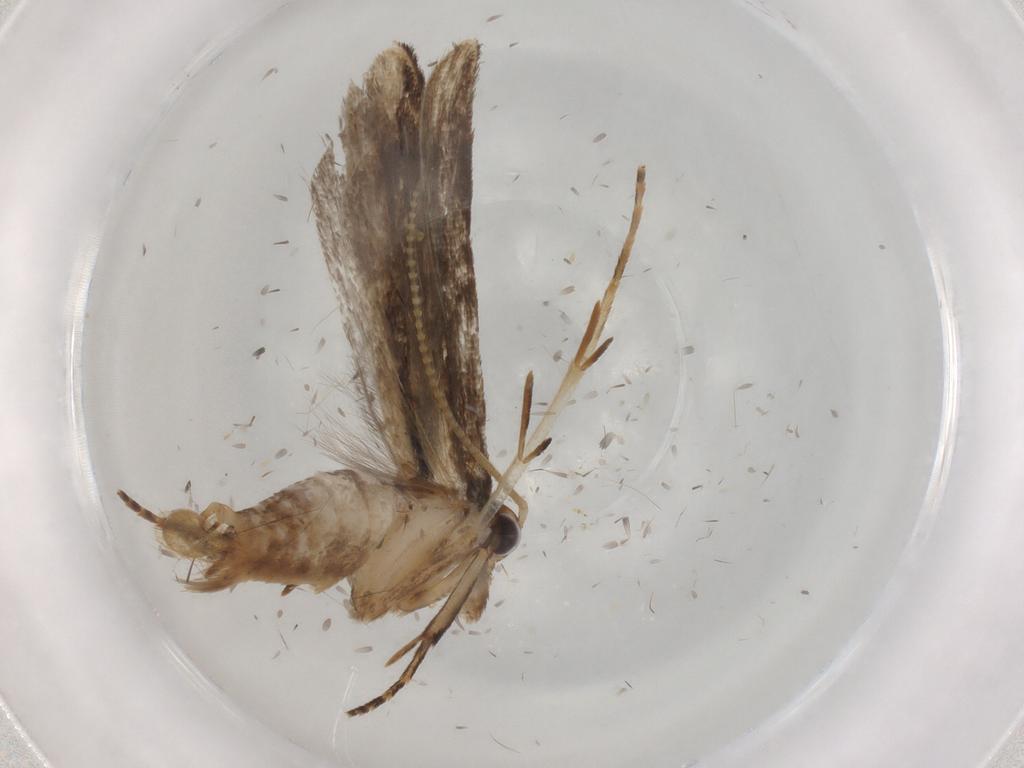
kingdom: Animalia
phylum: Arthropoda
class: Insecta
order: Lepidoptera
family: Gelechiidae
